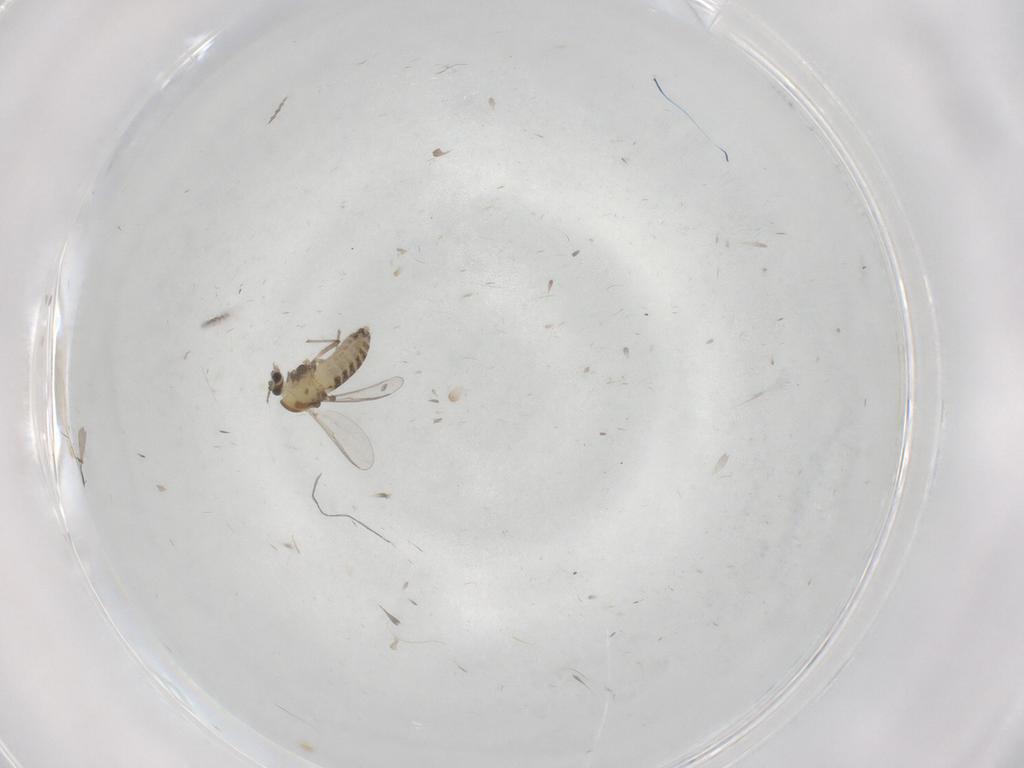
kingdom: Animalia
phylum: Arthropoda
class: Insecta
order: Diptera
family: Chironomidae
